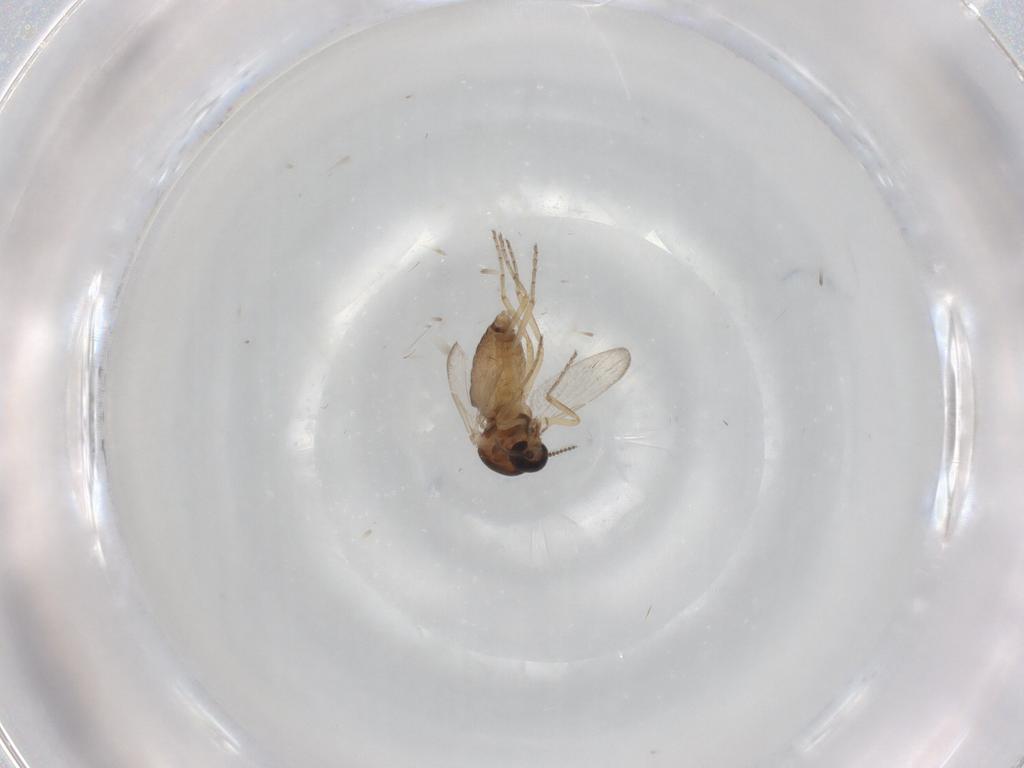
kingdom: Animalia
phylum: Arthropoda
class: Insecta
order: Diptera
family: Ceratopogonidae
